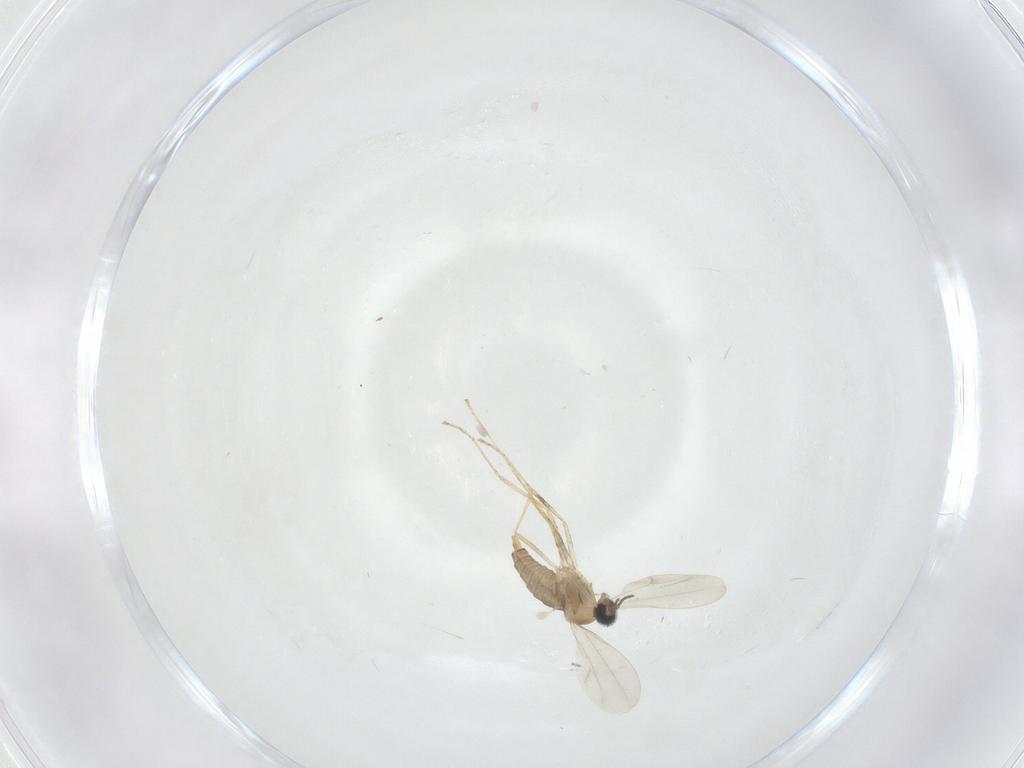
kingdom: Animalia
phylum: Arthropoda
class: Insecta
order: Diptera
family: Cecidomyiidae
